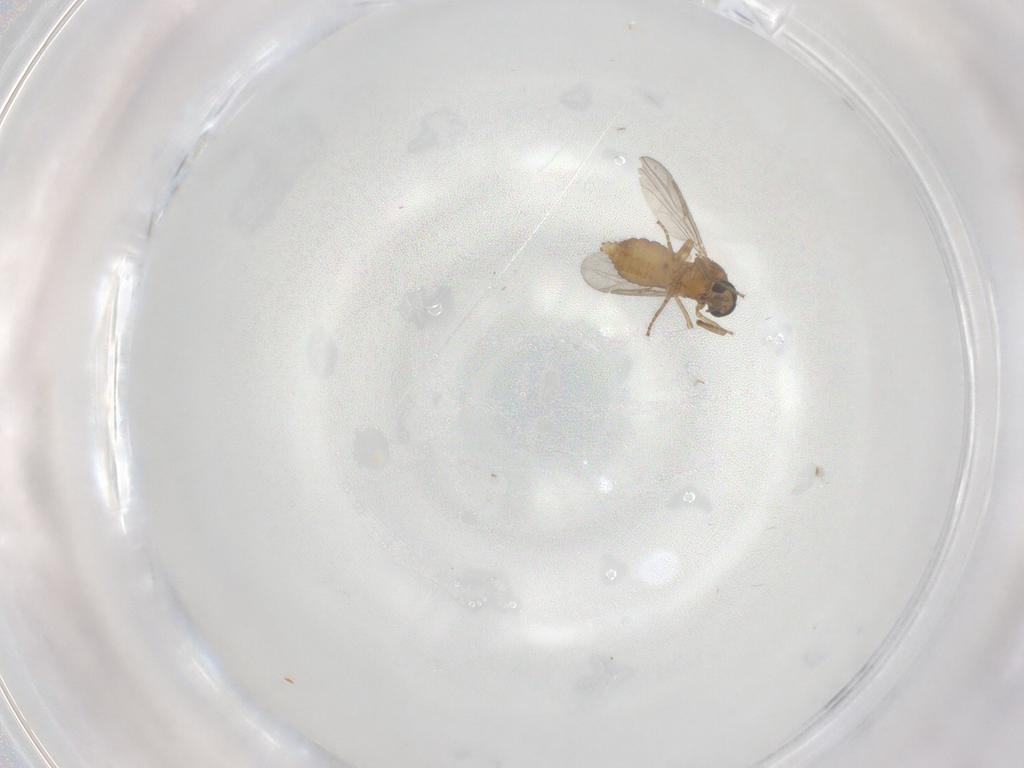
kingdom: Animalia
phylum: Arthropoda
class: Insecta
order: Diptera
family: Ceratopogonidae
